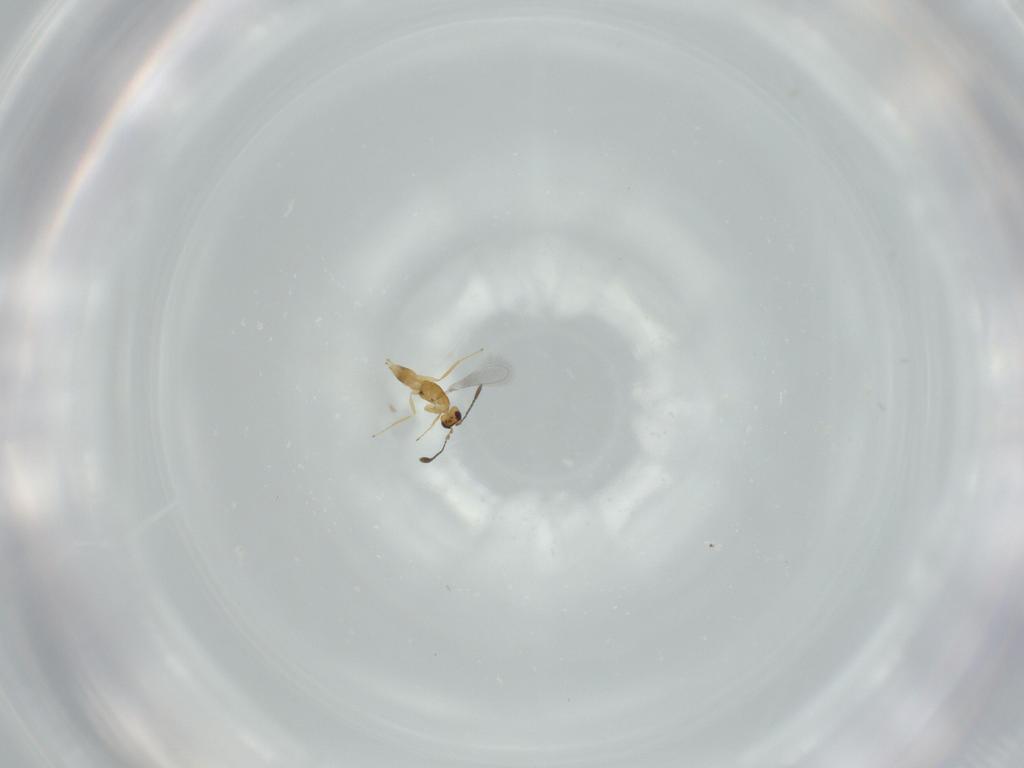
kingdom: Animalia
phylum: Arthropoda
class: Insecta
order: Hymenoptera
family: Mymaridae
